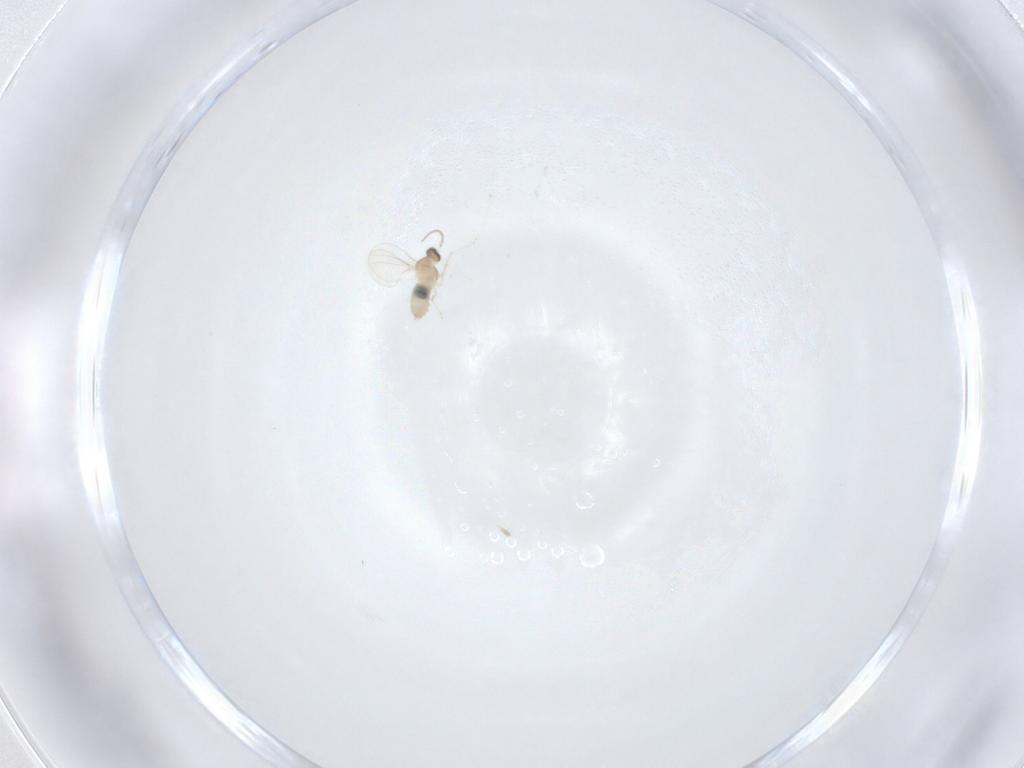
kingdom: Animalia
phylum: Arthropoda
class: Insecta
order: Diptera
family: Cecidomyiidae
